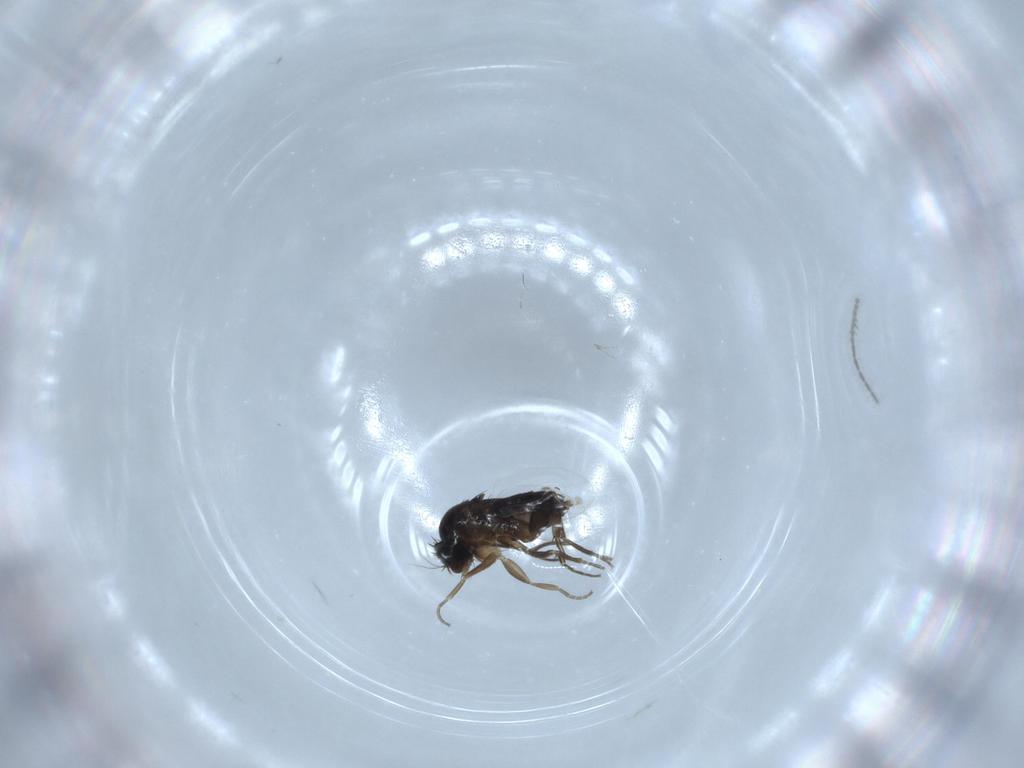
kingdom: Animalia
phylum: Arthropoda
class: Insecta
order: Diptera
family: Phoridae
